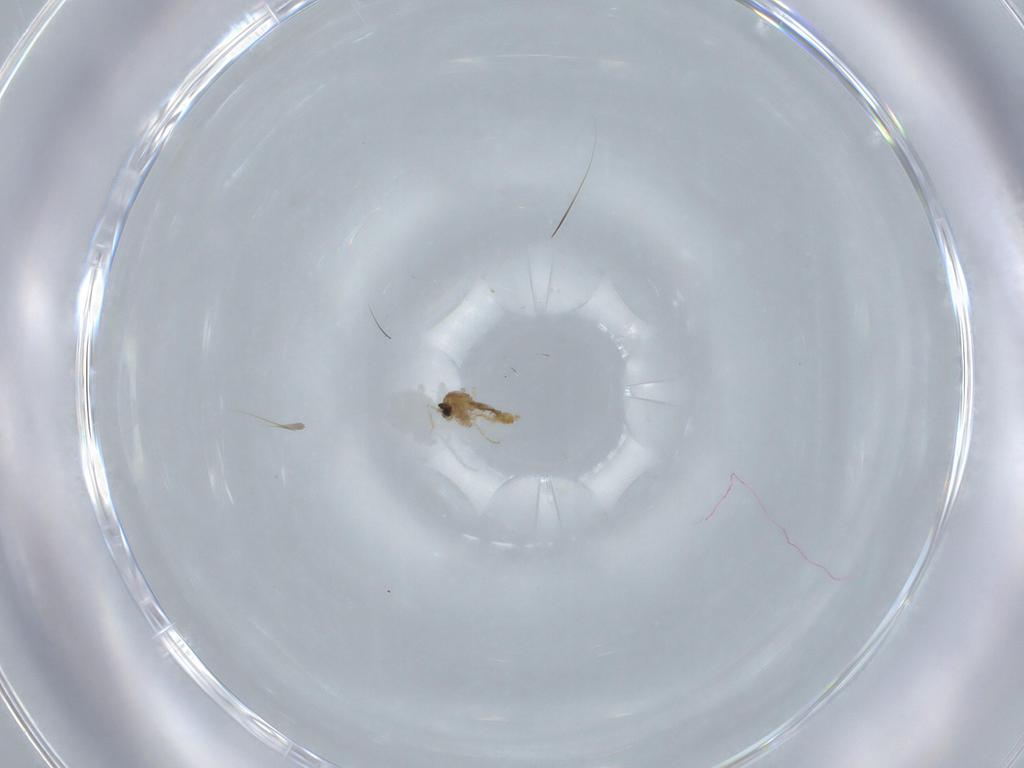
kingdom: Animalia
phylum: Arthropoda
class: Insecta
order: Diptera
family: Cecidomyiidae
